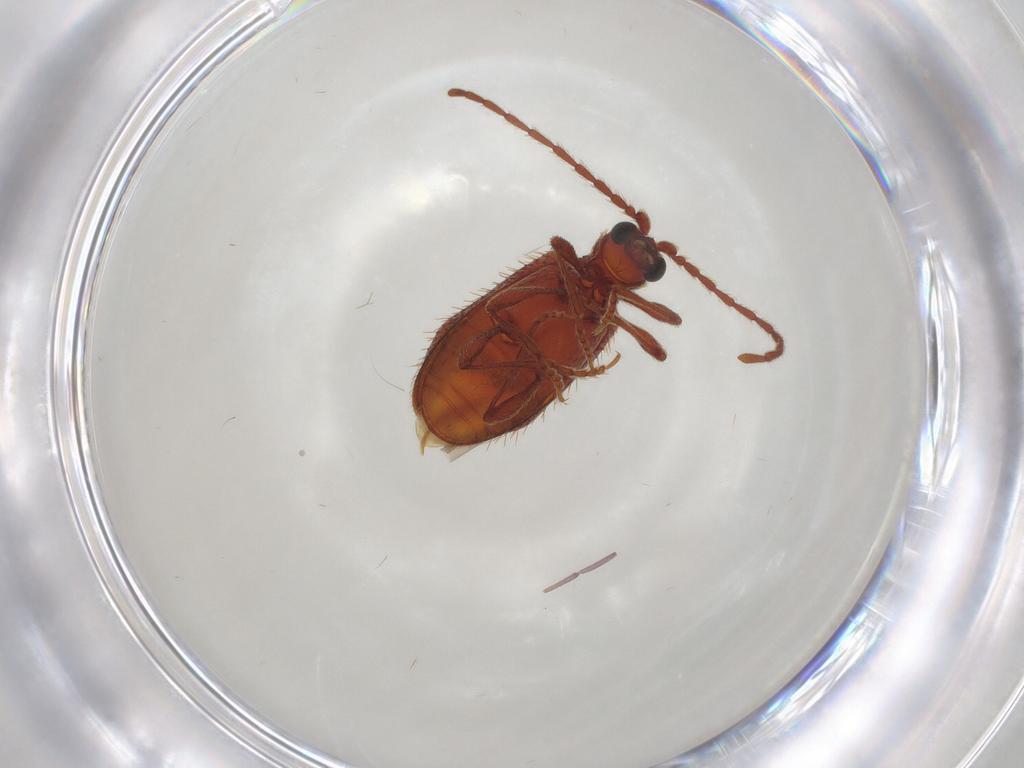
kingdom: Animalia
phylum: Arthropoda
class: Insecta
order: Coleoptera
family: Ptinidae
